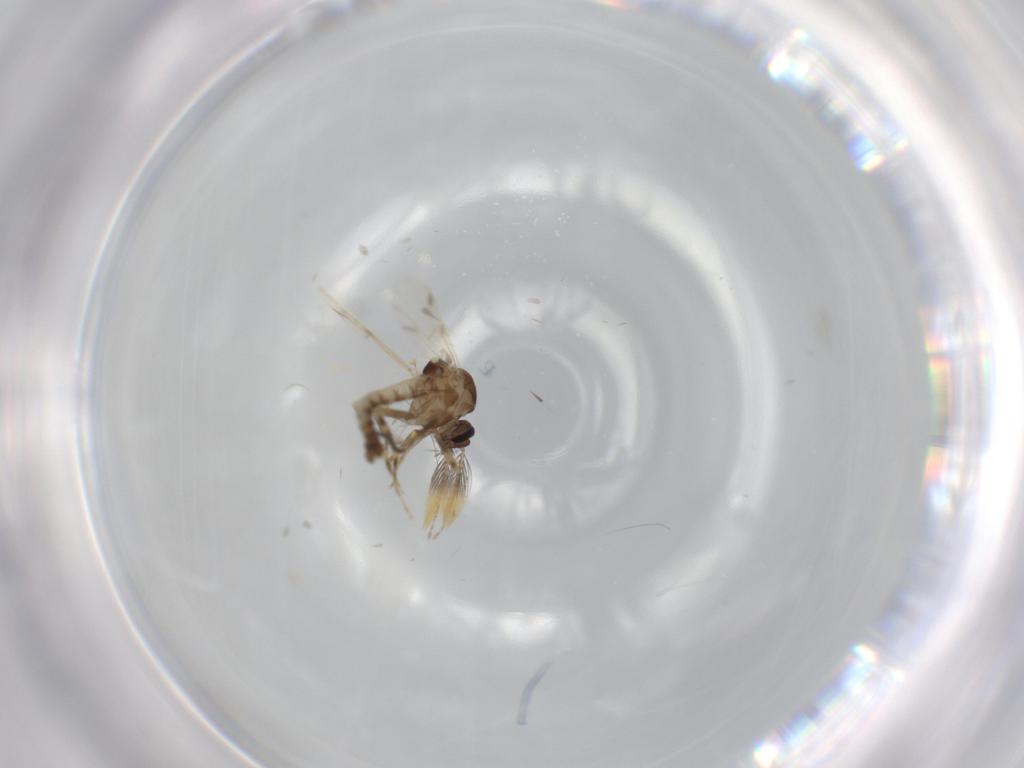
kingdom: Animalia
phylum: Arthropoda
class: Insecta
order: Diptera
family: Ceratopogonidae
